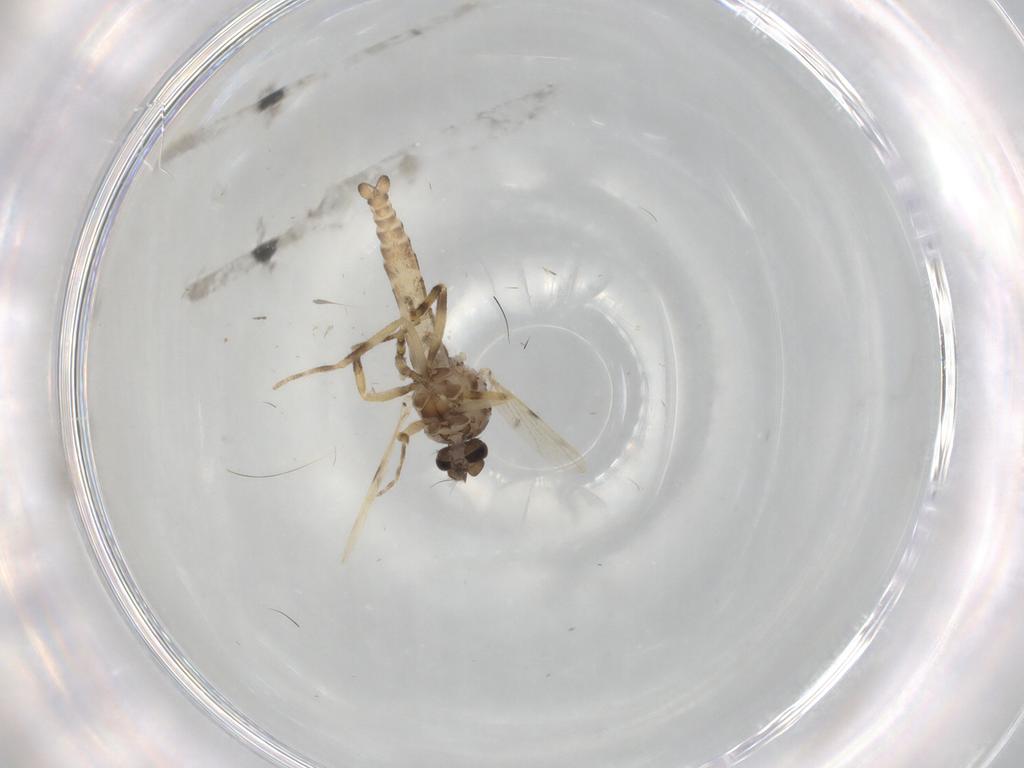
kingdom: Animalia
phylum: Arthropoda
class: Insecta
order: Diptera
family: Ceratopogonidae
